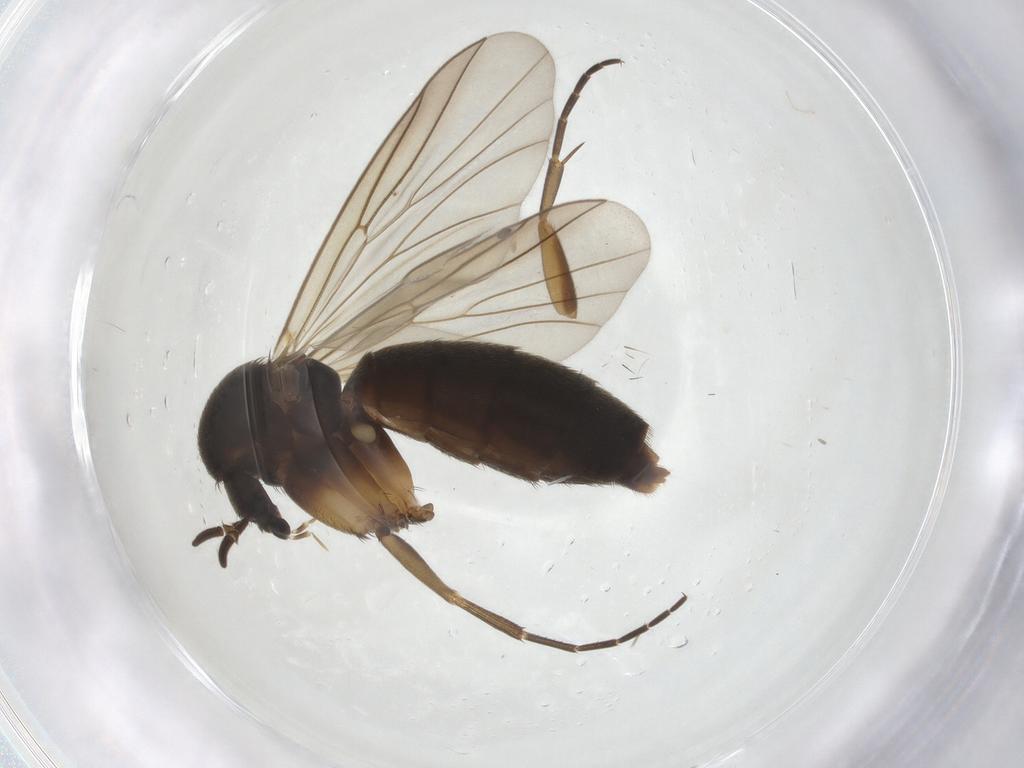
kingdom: Animalia
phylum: Arthropoda
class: Insecta
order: Diptera
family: Mycetophilidae
